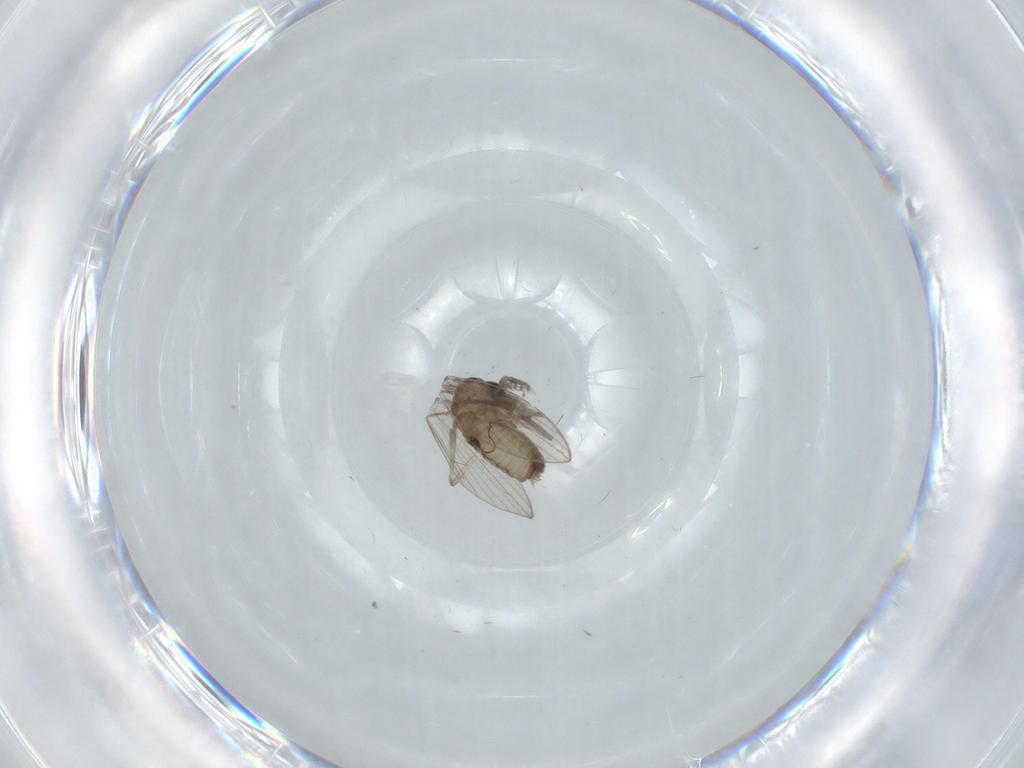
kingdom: Animalia
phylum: Arthropoda
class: Insecta
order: Diptera
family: Psychodidae
